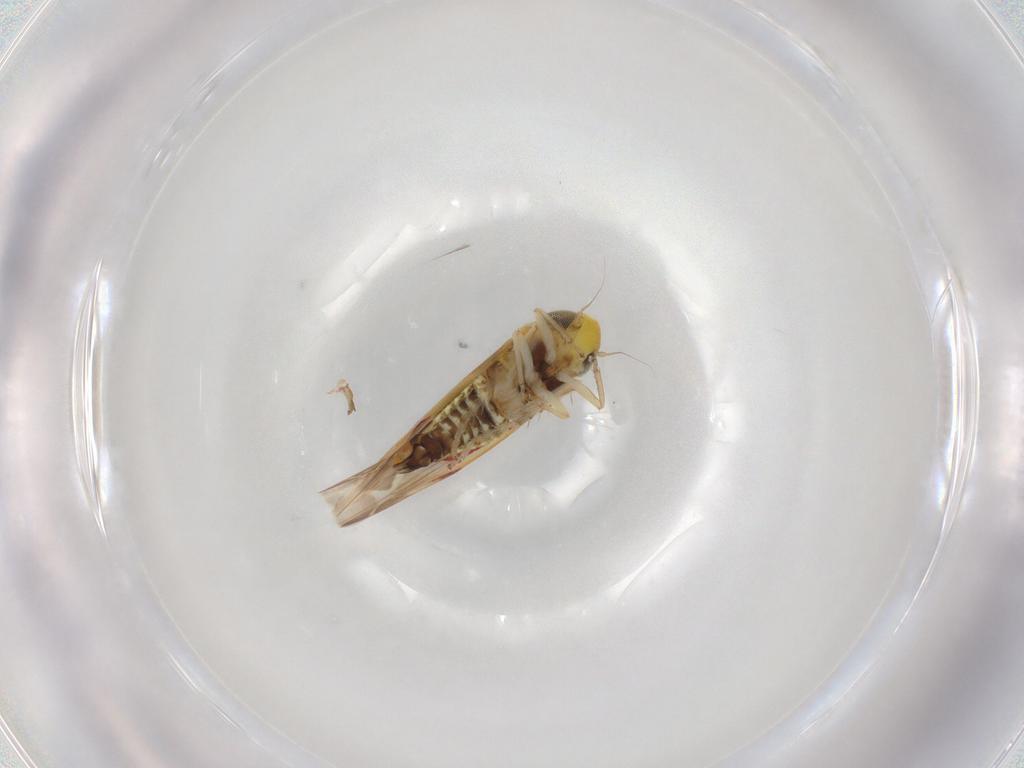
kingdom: Animalia
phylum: Arthropoda
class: Insecta
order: Hemiptera
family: Cicadellidae
